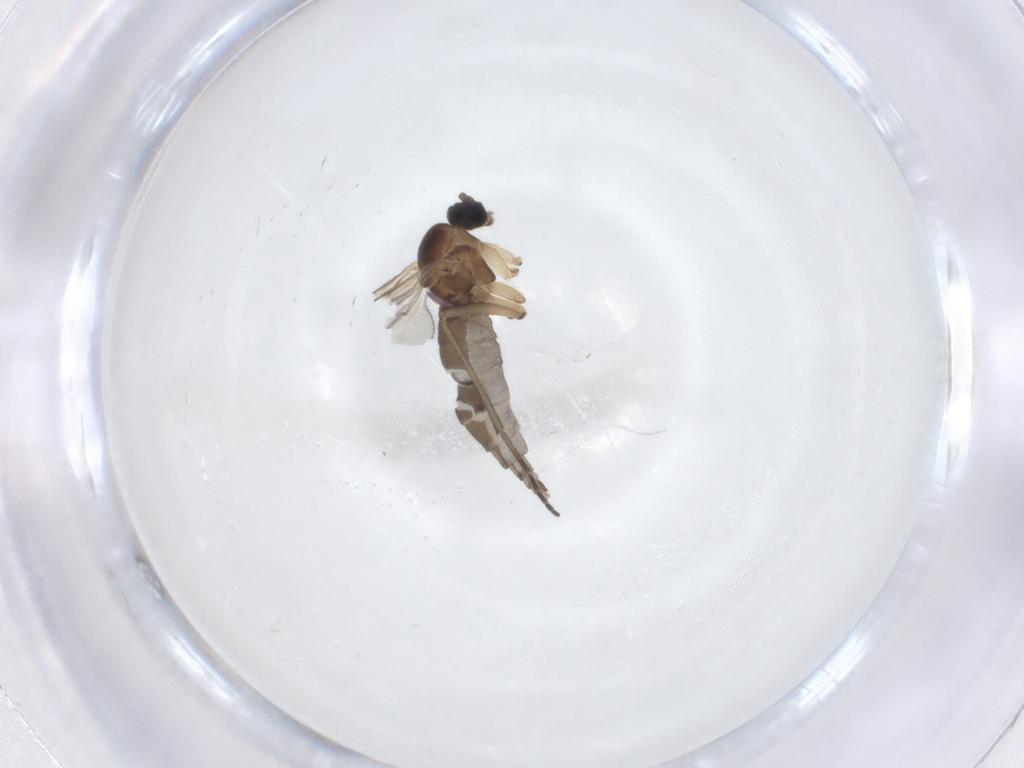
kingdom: Animalia
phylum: Arthropoda
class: Insecta
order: Diptera
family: Sciaridae
